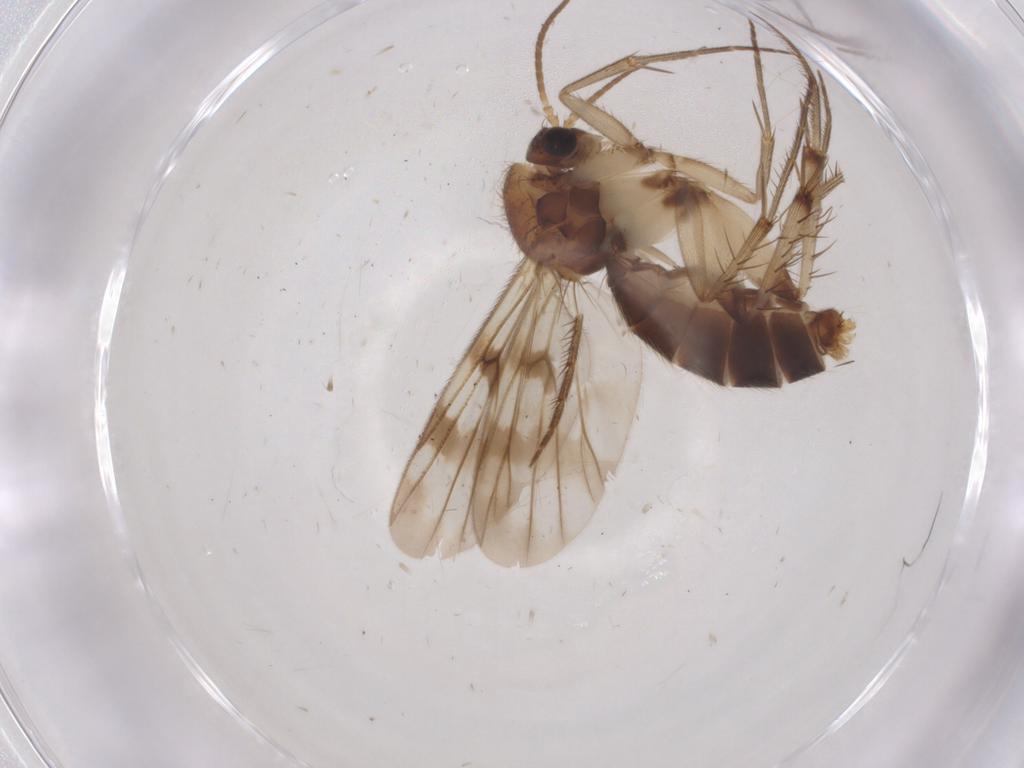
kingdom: Animalia
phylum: Arthropoda
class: Insecta
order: Diptera
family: Mycetophilidae
